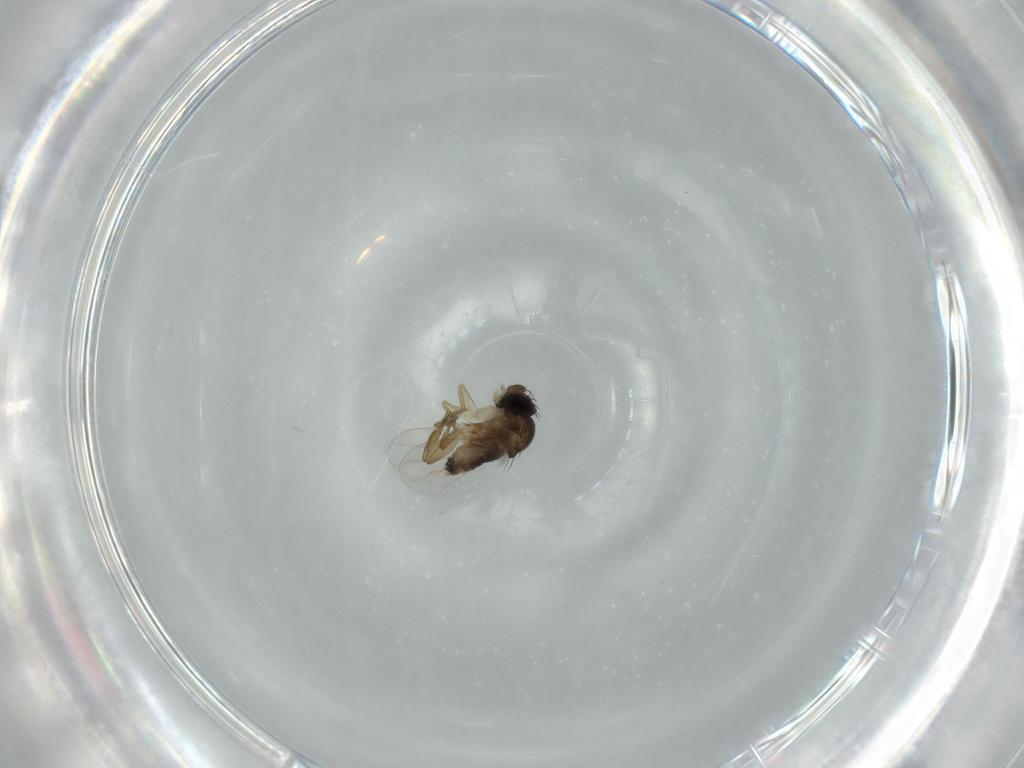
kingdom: Animalia
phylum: Arthropoda
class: Insecta
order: Diptera
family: Phoridae
